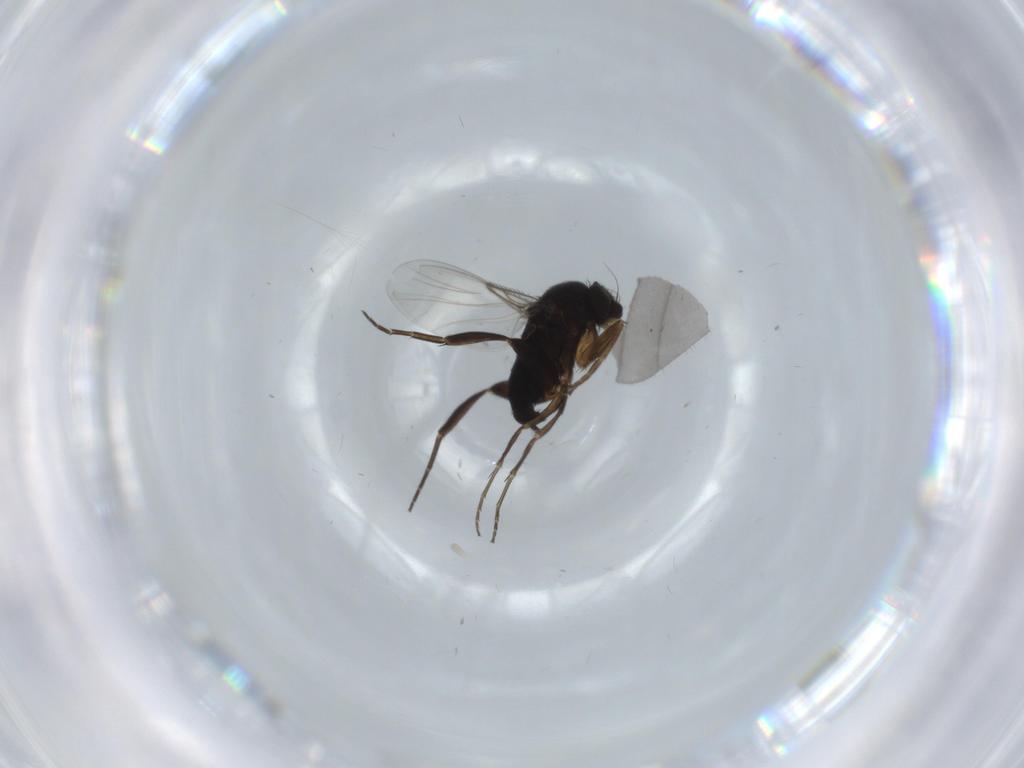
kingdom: Animalia
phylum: Arthropoda
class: Insecta
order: Diptera
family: Phoridae
